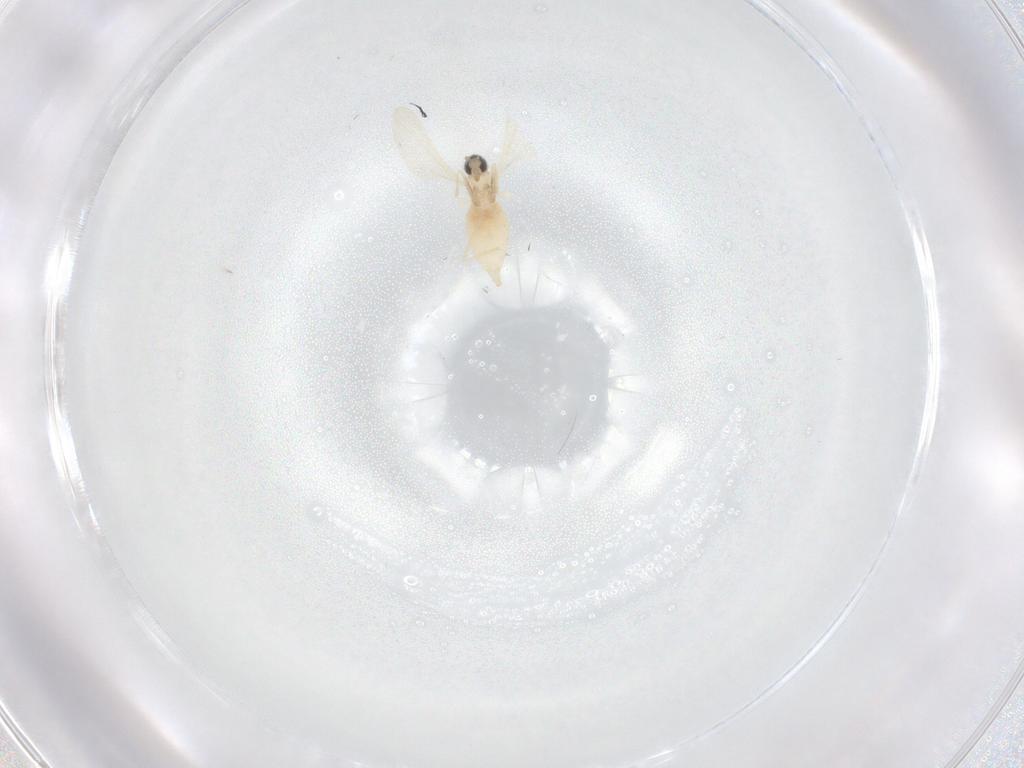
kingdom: Animalia
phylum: Arthropoda
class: Insecta
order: Diptera
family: Cecidomyiidae
